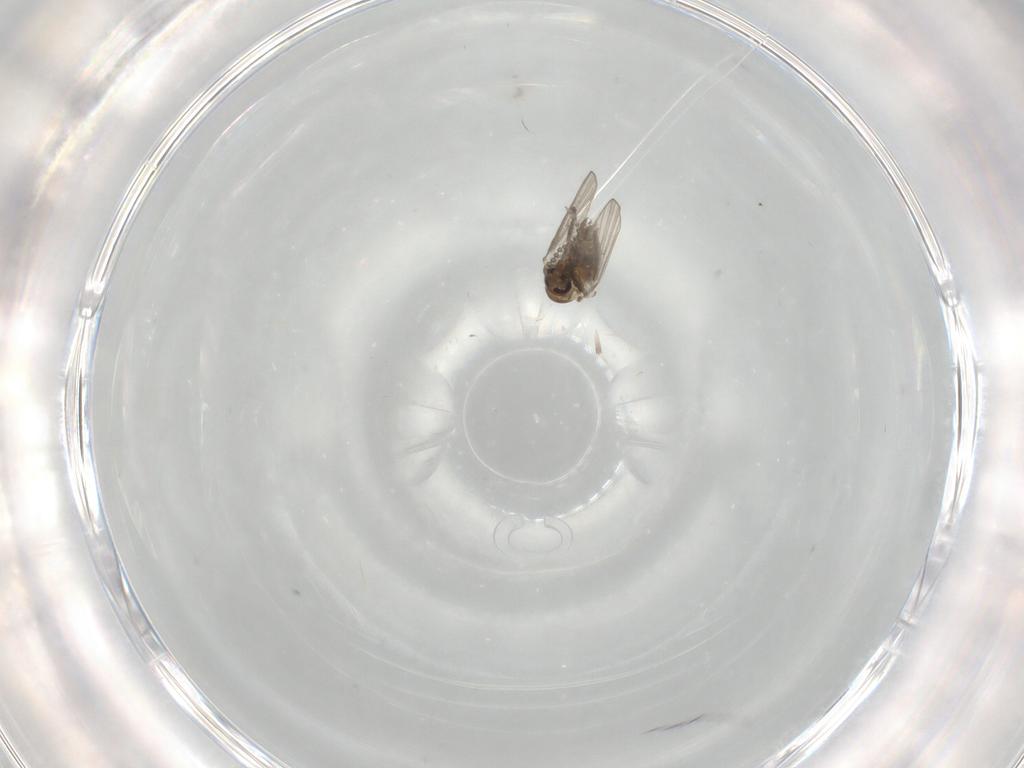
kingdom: Animalia
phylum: Arthropoda
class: Insecta
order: Diptera
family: Psychodidae
